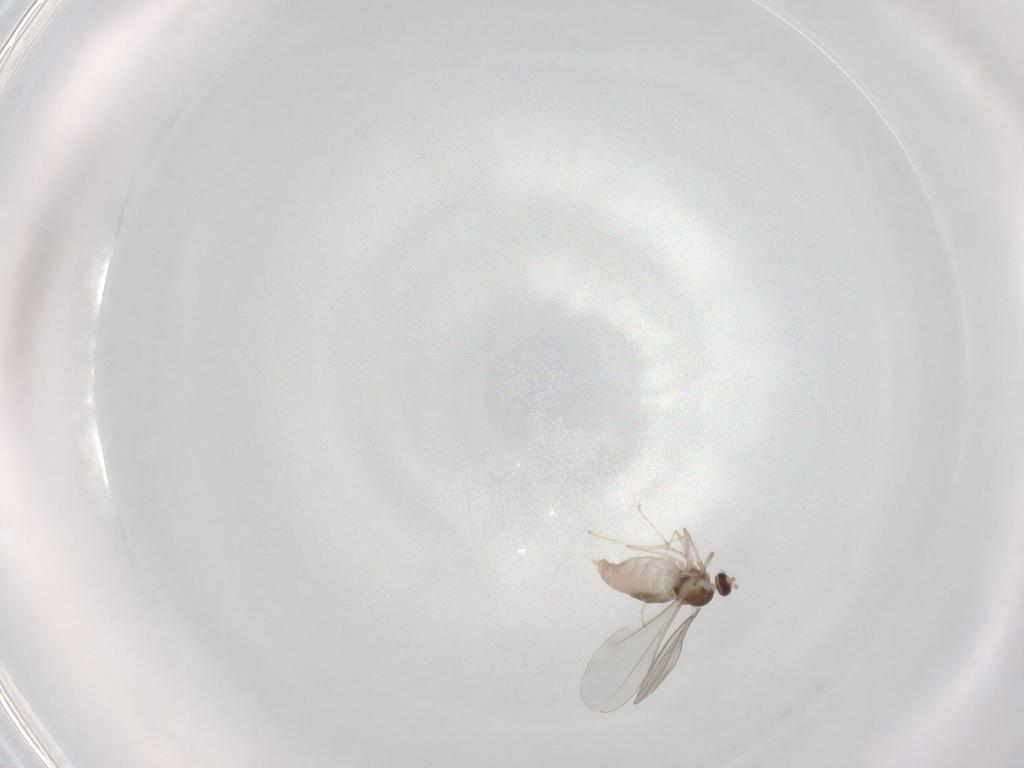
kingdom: Animalia
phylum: Arthropoda
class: Insecta
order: Diptera
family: Cecidomyiidae
